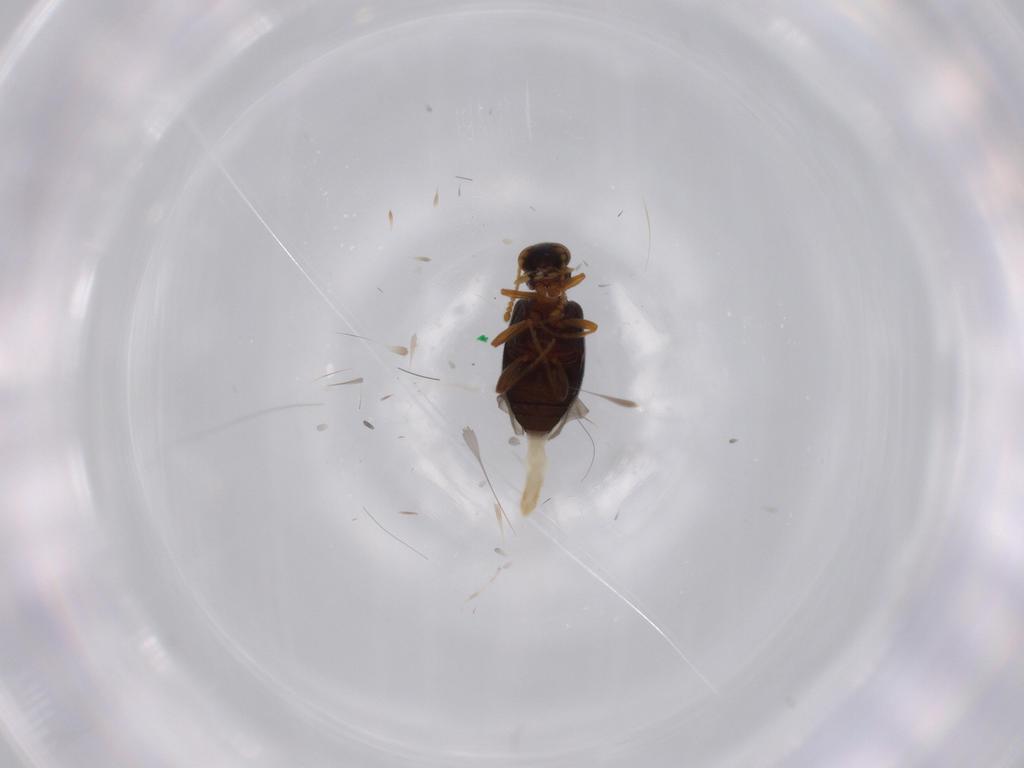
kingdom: Animalia
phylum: Arthropoda
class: Insecta
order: Coleoptera
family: Aderidae
